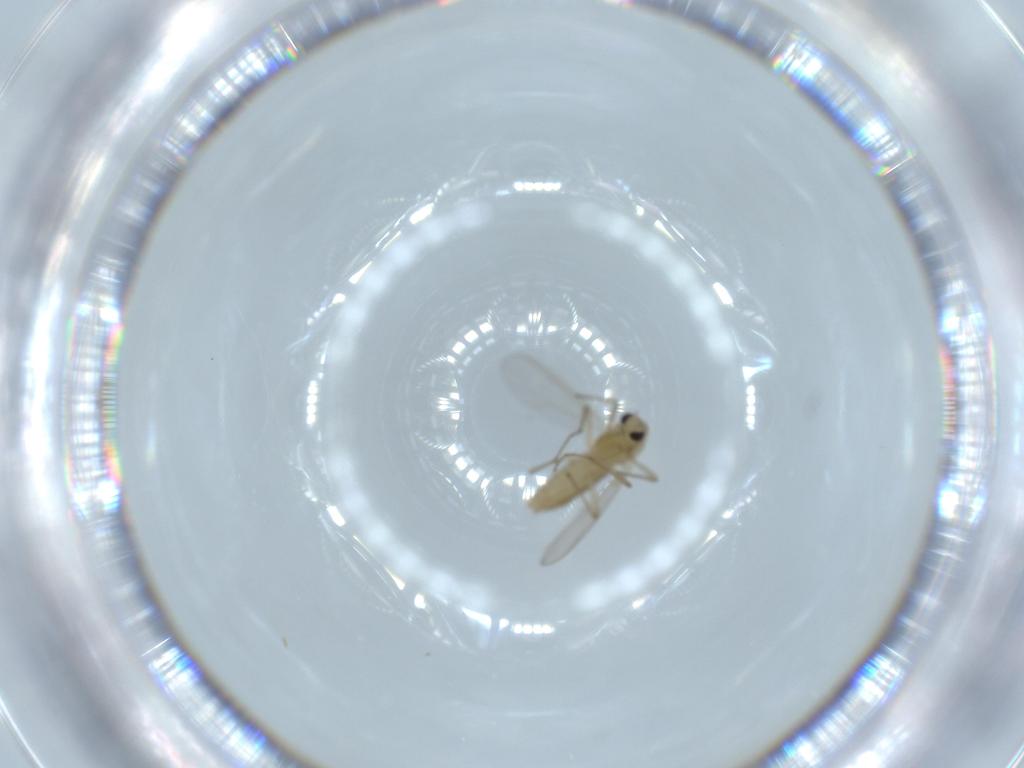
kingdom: Animalia
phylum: Arthropoda
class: Insecta
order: Diptera
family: Chironomidae
